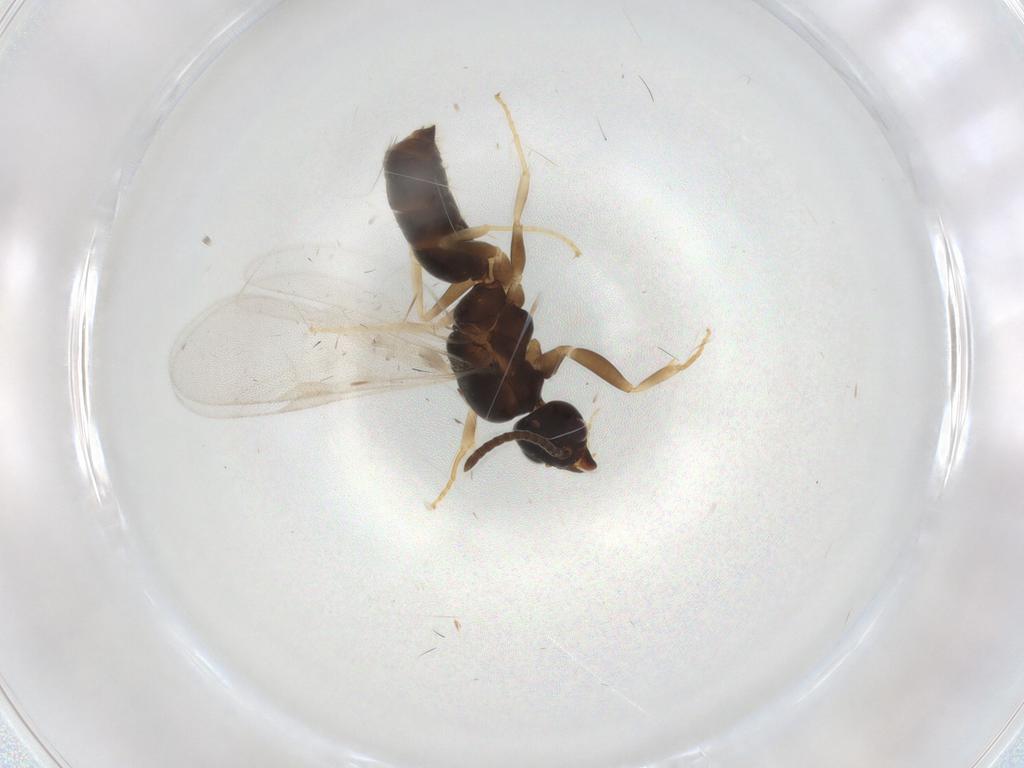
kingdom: Animalia
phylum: Arthropoda
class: Insecta
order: Hymenoptera
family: Formicidae
